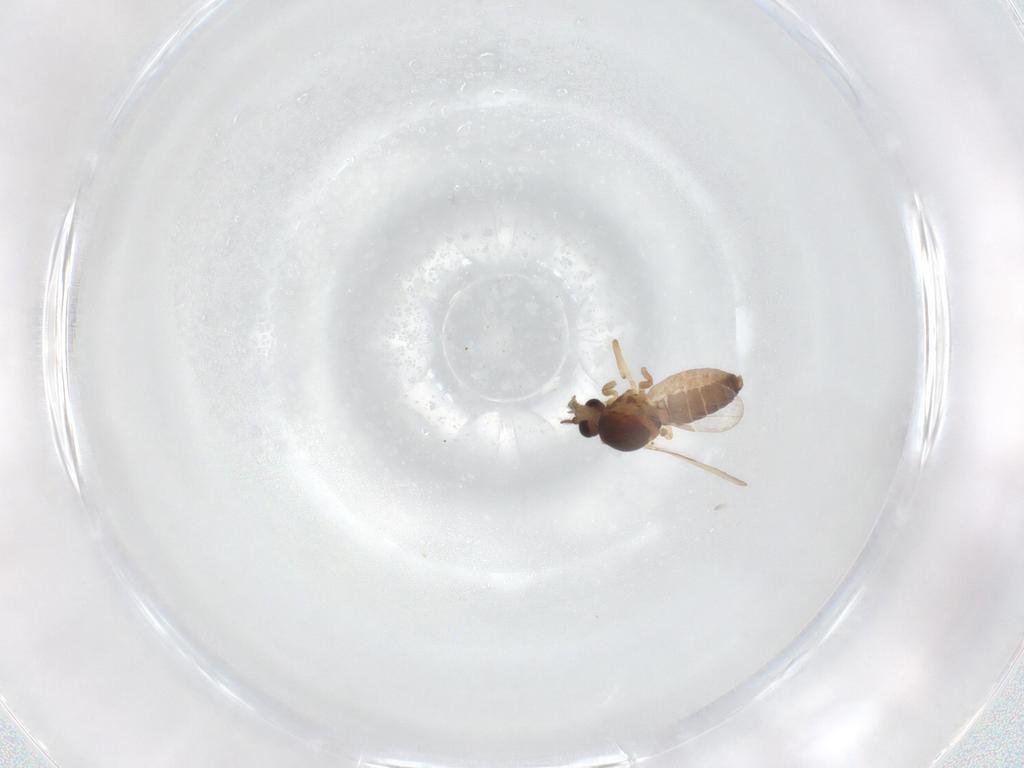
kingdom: Animalia
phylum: Arthropoda
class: Insecta
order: Diptera
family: Ceratopogonidae
